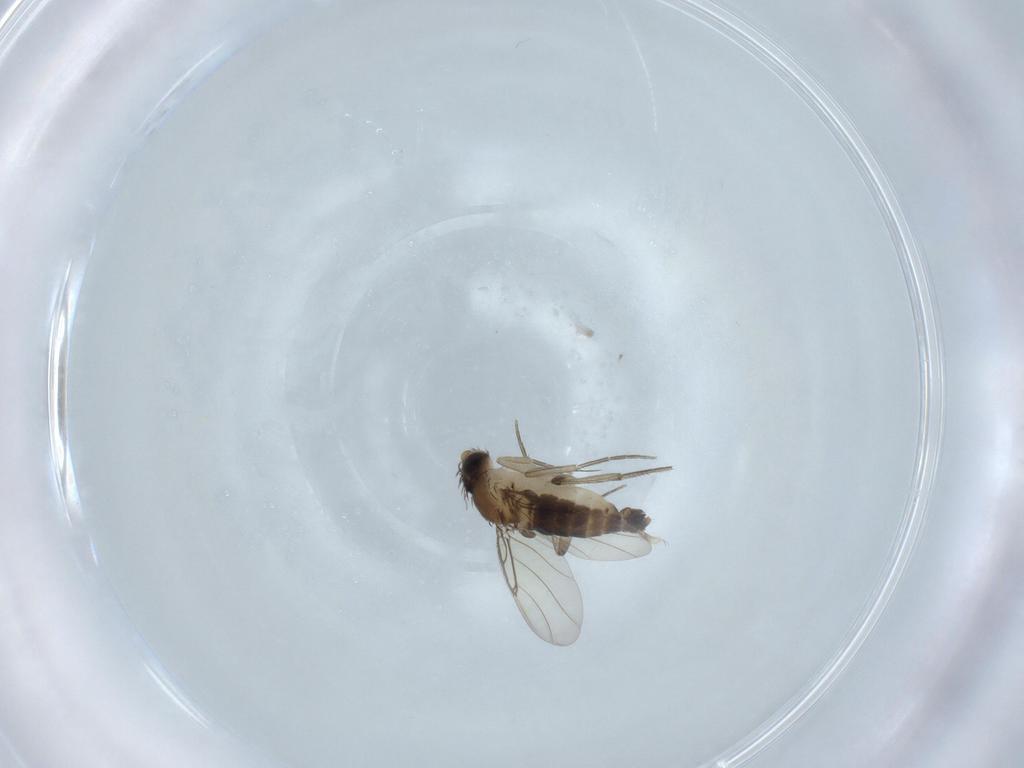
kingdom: Animalia
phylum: Arthropoda
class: Insecta
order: Diptera
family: Phoridae
